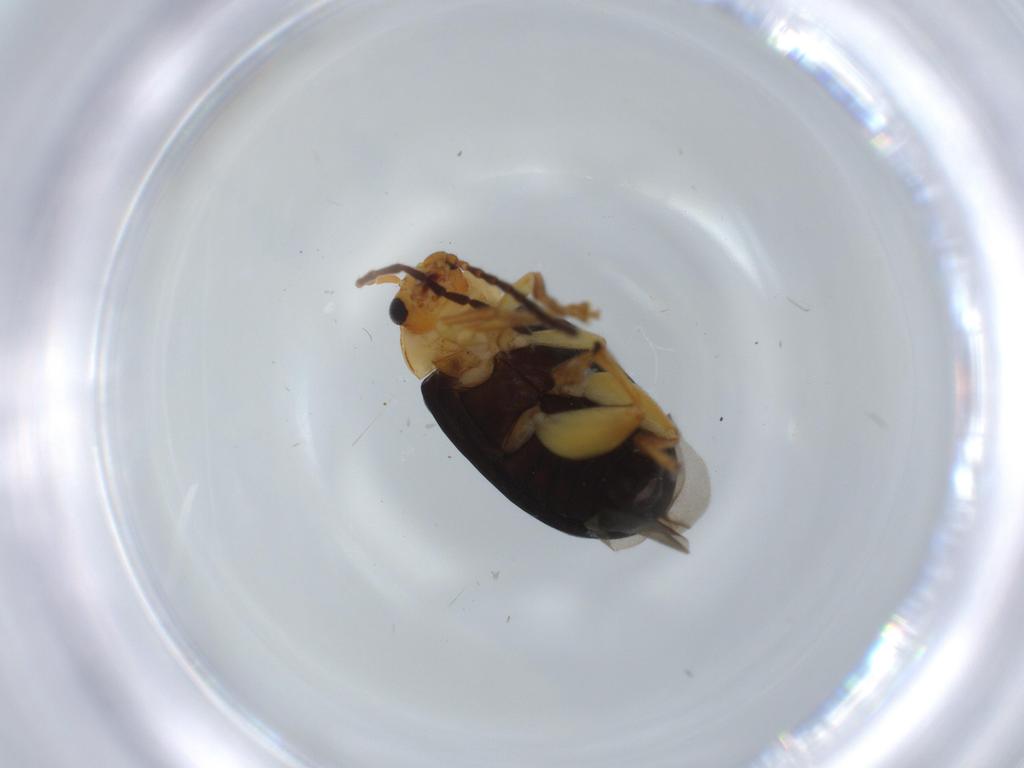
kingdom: Animalia
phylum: Arthropoda
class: Insecta
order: Coleoptera
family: Chrysomelidae
